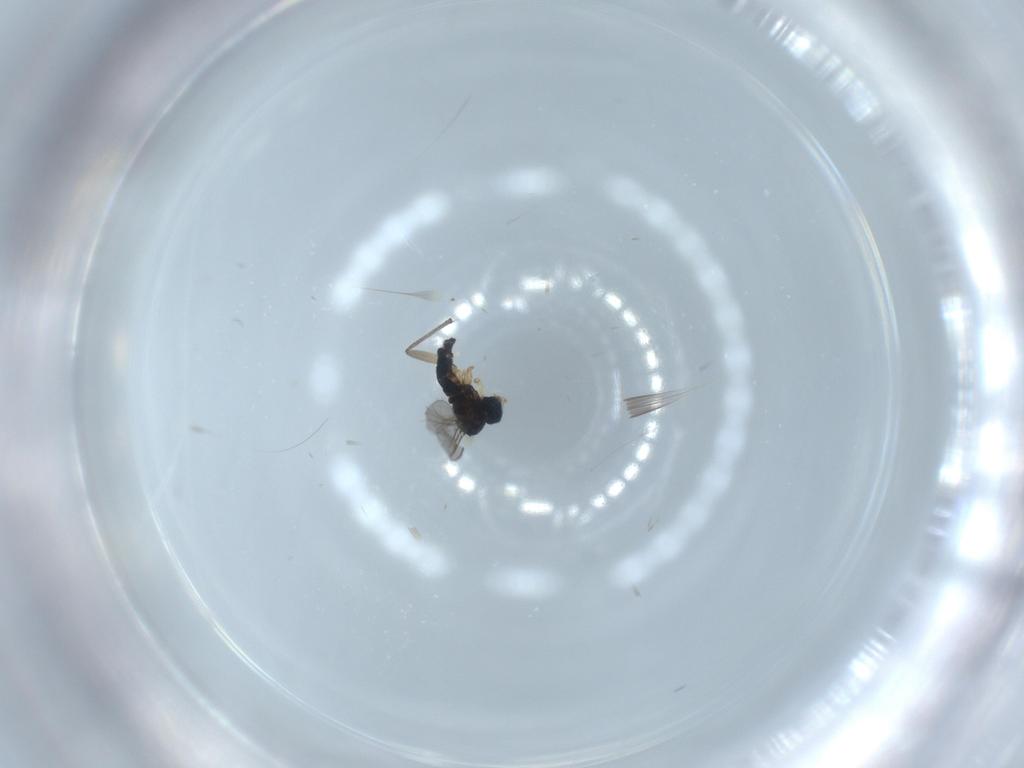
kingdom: Animalia
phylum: Arthropoda
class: Insecta
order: Diptera
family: Sciaridae
